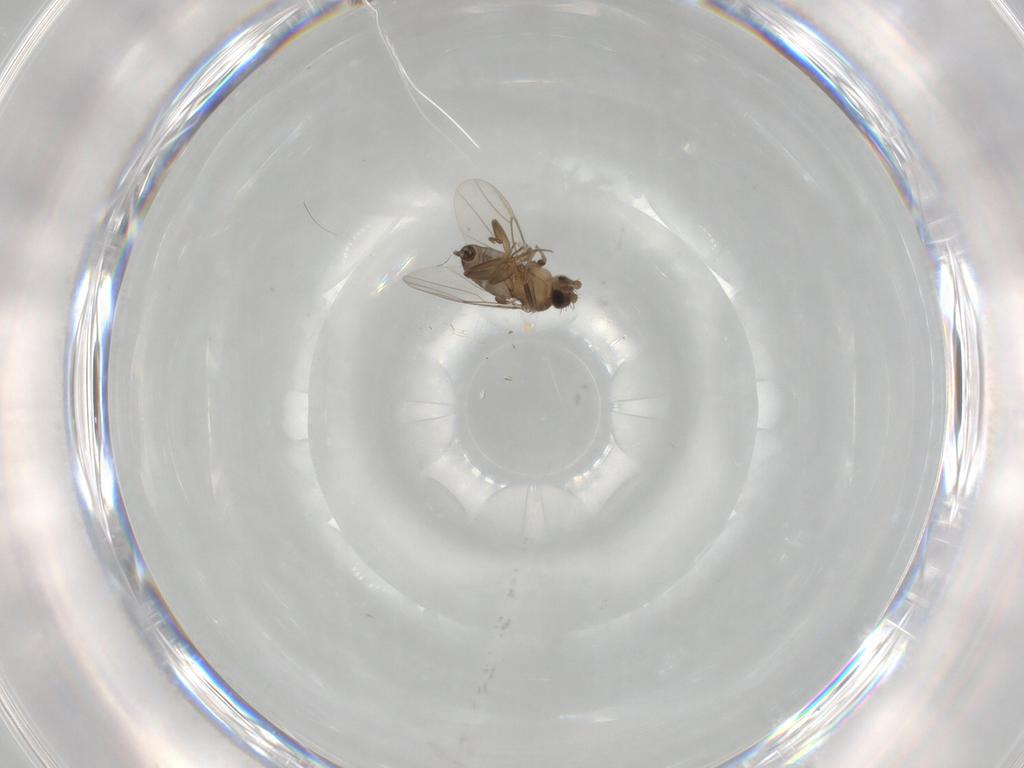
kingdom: Animalia
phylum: Arthropoda
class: Insecta
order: Diptera
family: Phoridae
